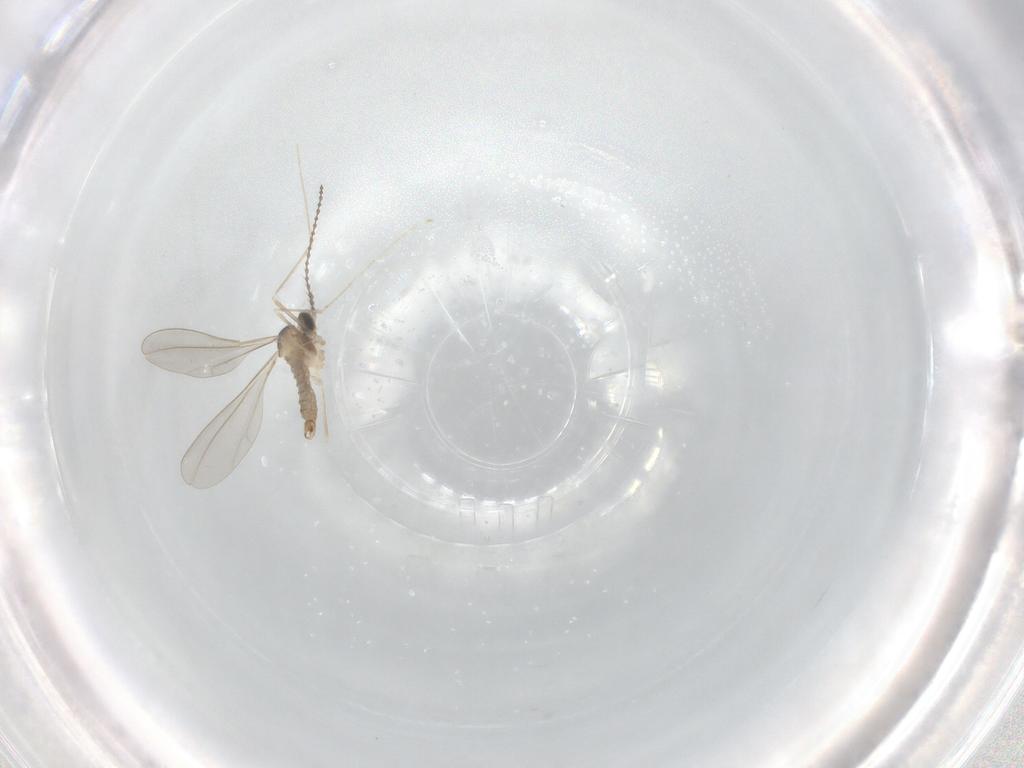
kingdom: Animalia
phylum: Arthropoda
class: Insecta
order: Diptera
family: Cecidomyiidae
